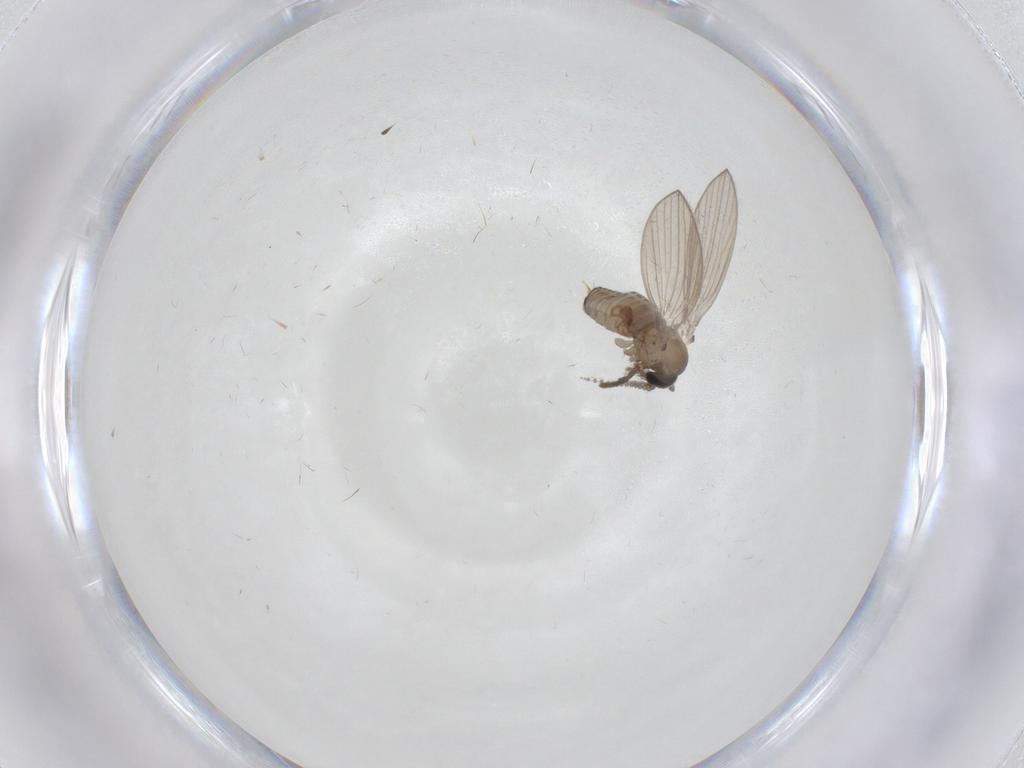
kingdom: Animalia
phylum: Arthropoda
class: Insecta
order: Diptera
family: Psychodidae
